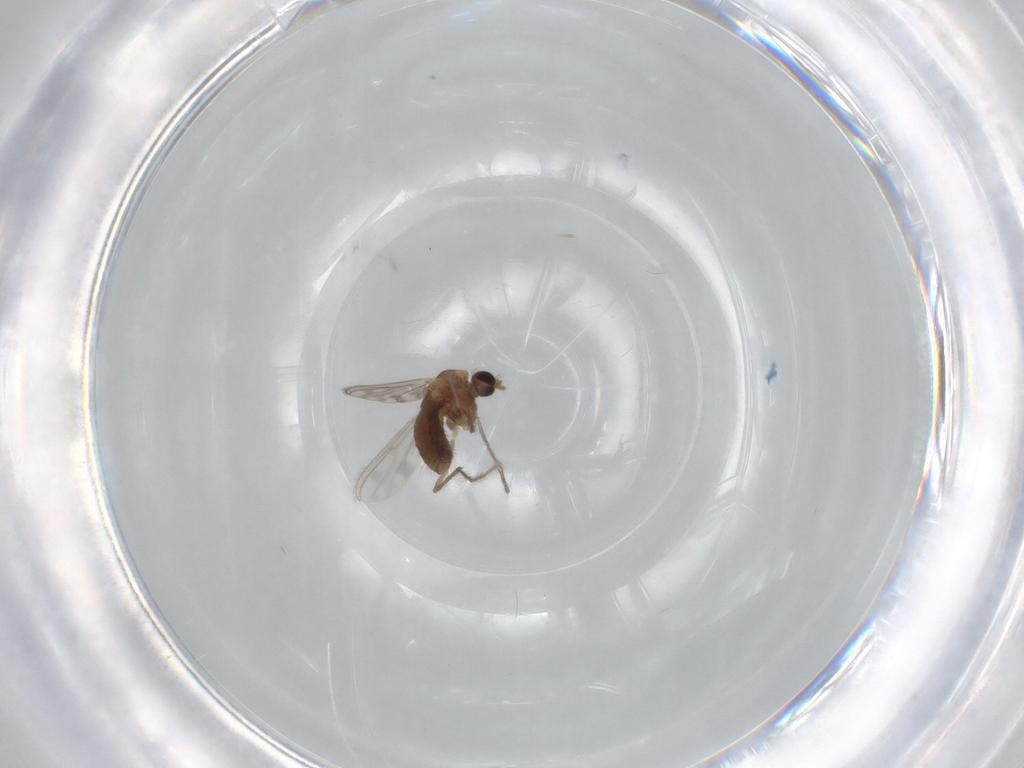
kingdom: Animalia
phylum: Arthropoda
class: Insecta
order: Diptera
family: Chironomidae
